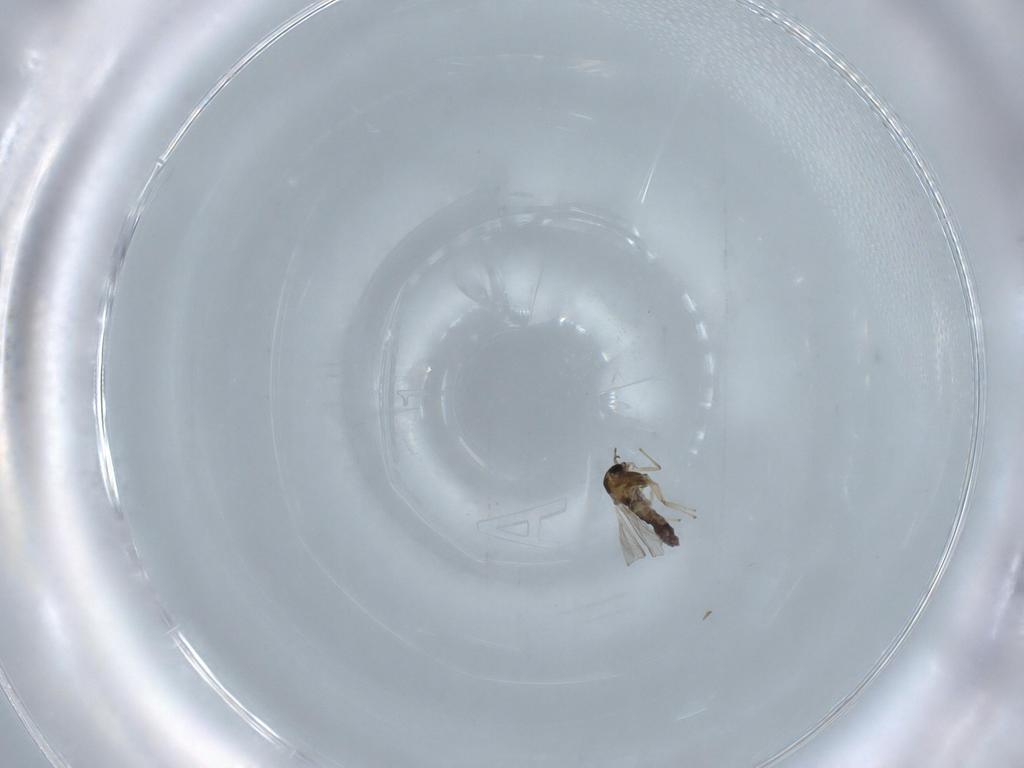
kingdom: Animalia
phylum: Arthropoda
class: Insecta
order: Diptera
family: Chironomidae
